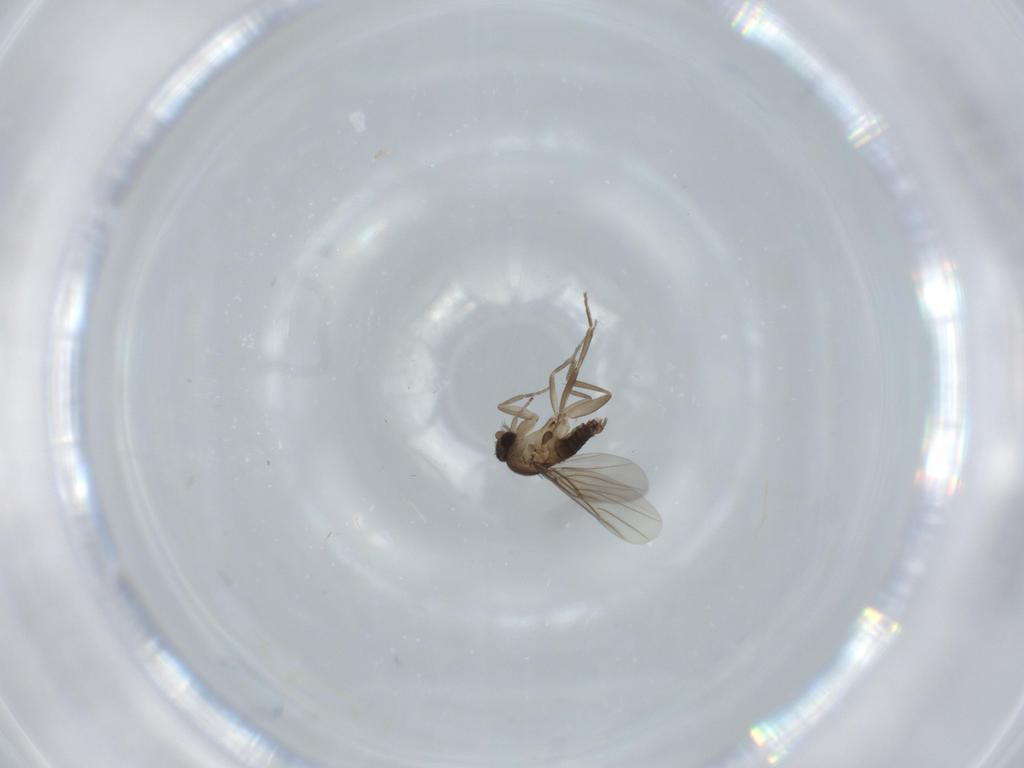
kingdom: Animalia
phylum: Arthropoda
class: Insecta
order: Diptera
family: Phoridae
